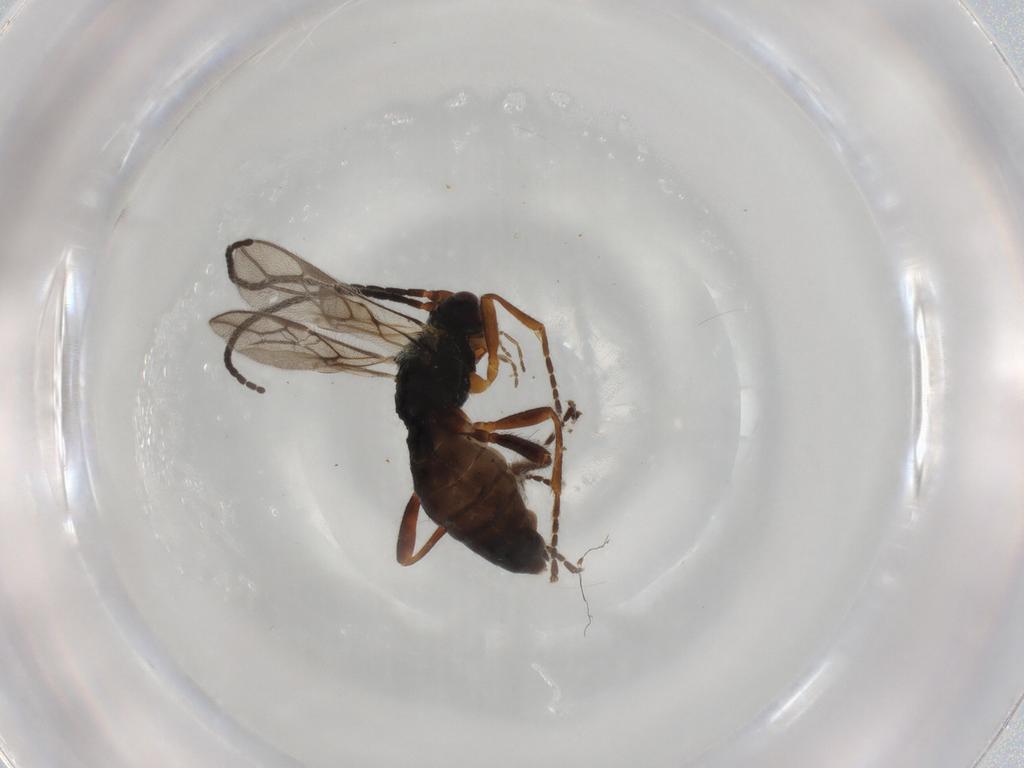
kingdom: Animalia
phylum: Arthropoda
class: Insecta
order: Hymenoptera
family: Braconidae
